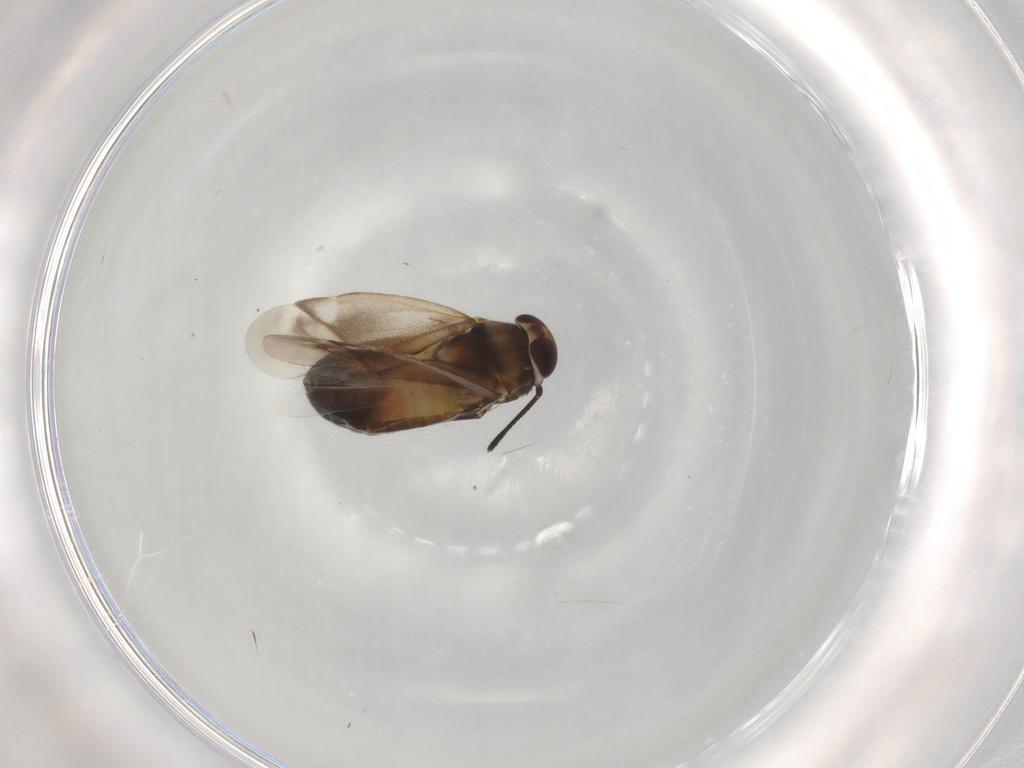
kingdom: Animalia
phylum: Arthropoda
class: Insecta
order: Hemiptera
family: Miridae
